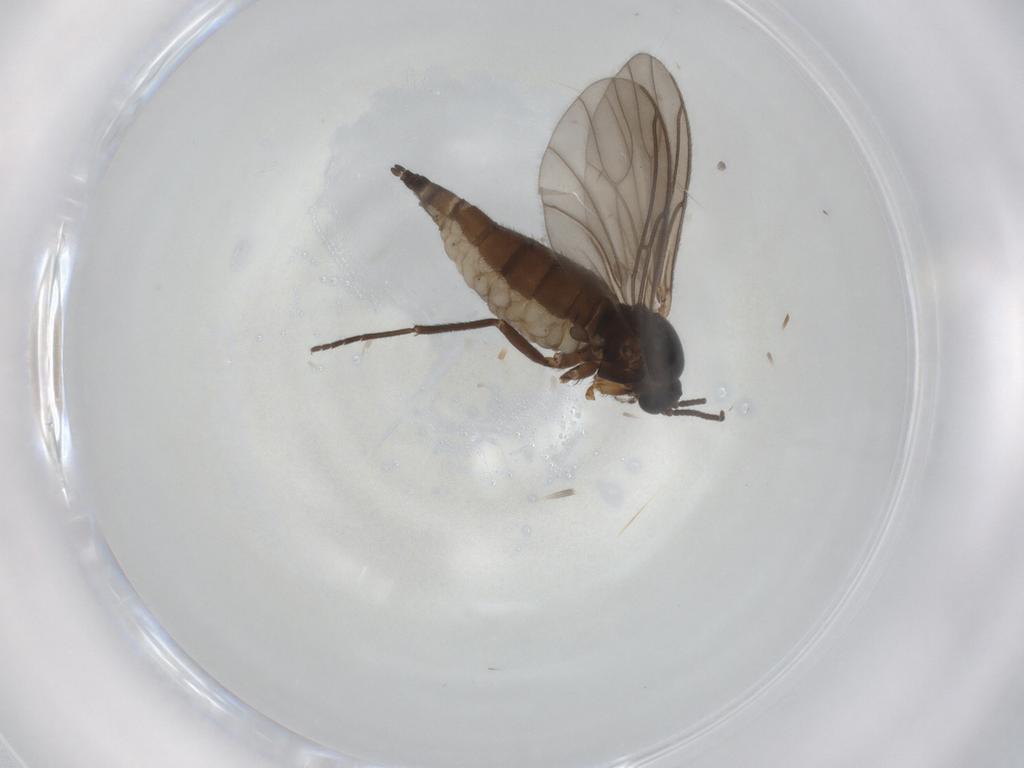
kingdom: Animalia
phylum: Arthropoda
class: Insecta
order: Diptera
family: Sciaridae
